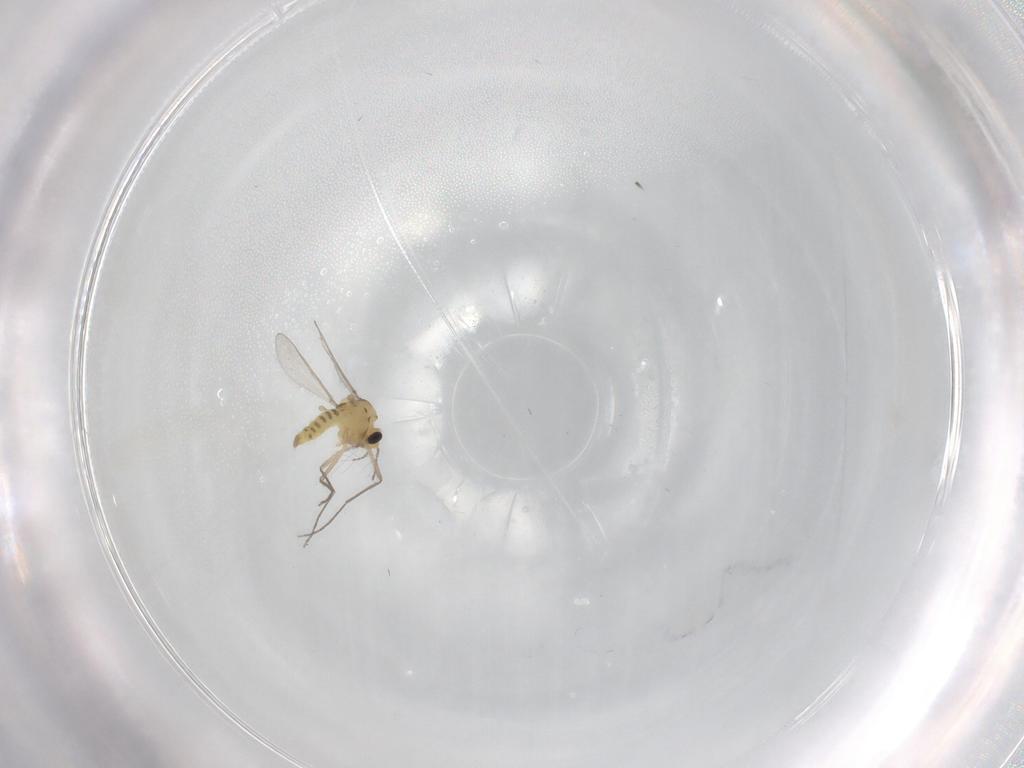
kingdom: Animalia
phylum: Arthropoda
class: Insecta
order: Diptera
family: Chironomidae
